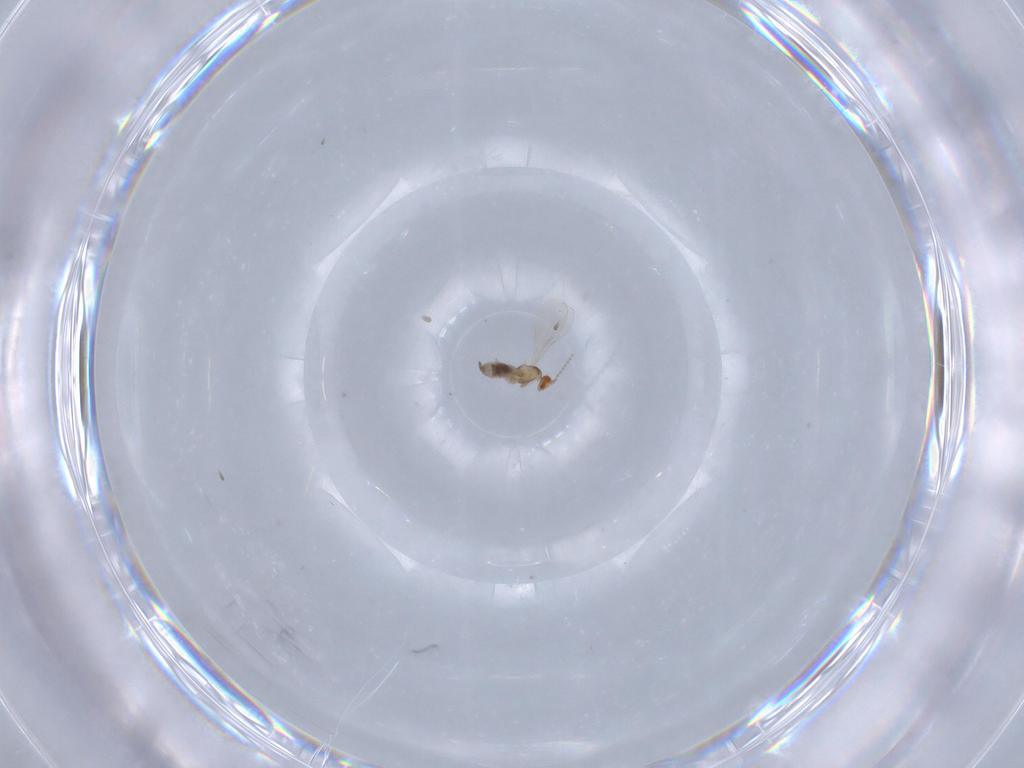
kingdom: Animalia
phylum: Arthropoda
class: Insecta
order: Diptera
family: Cecidomyiidae
